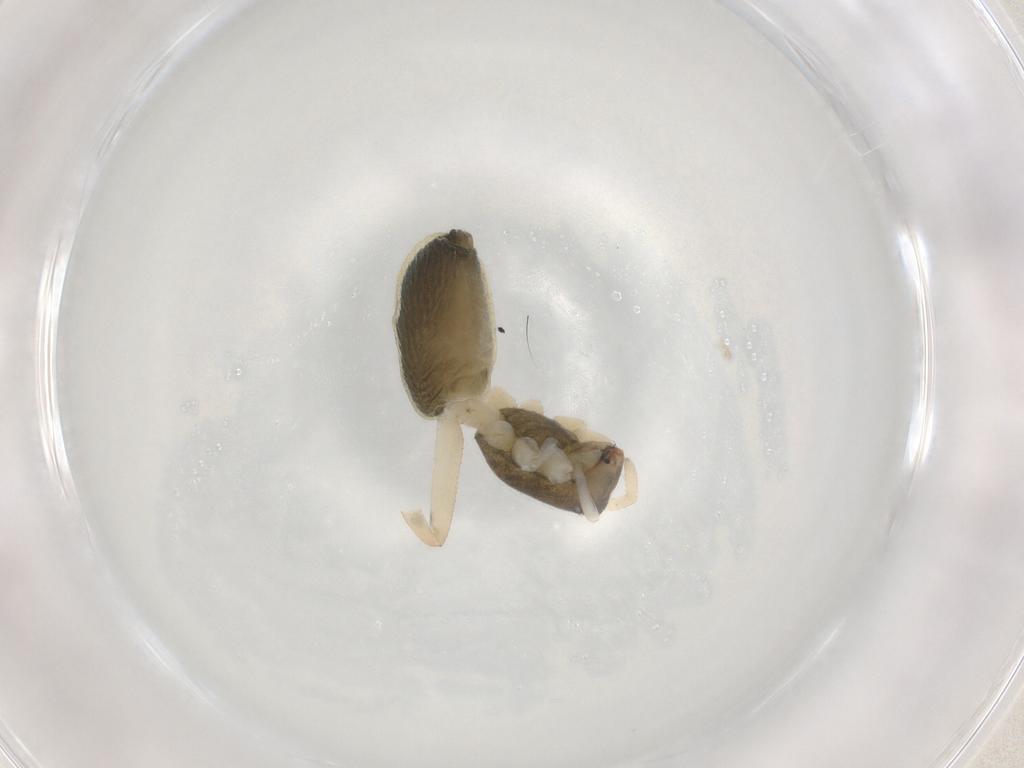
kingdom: Animalia
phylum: Arthropoda
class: Arachnida
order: Araneae
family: Trachelidae
